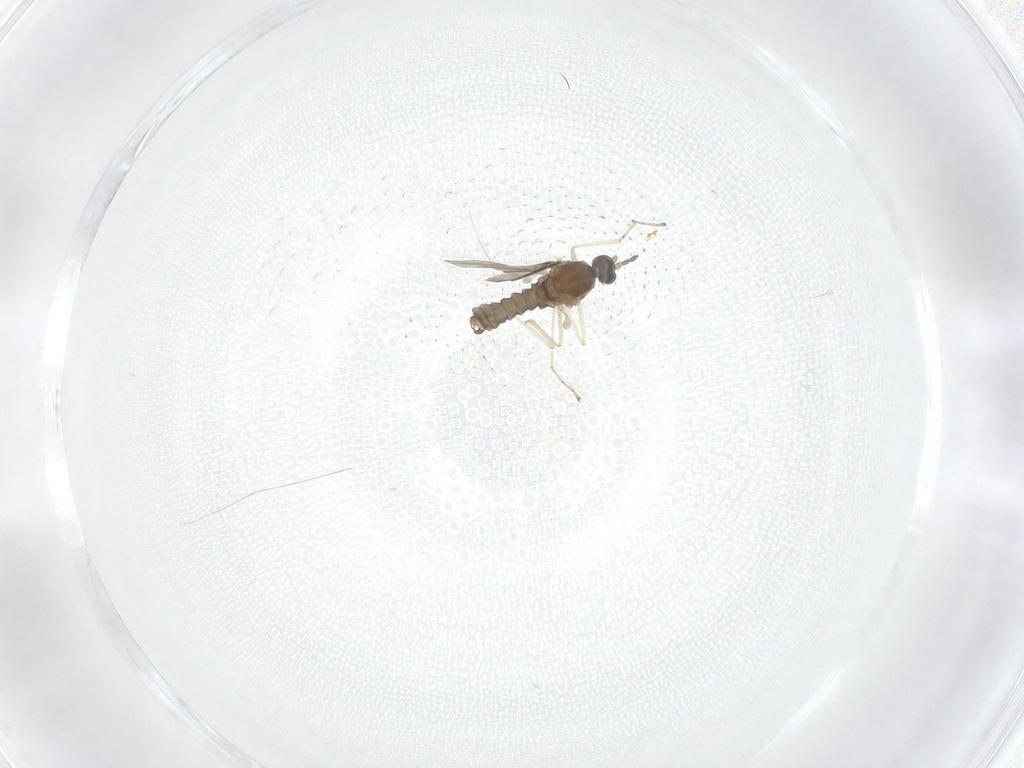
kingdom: Animalia
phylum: Arthropoda
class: Insecta
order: Diptera
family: Sciaridae
